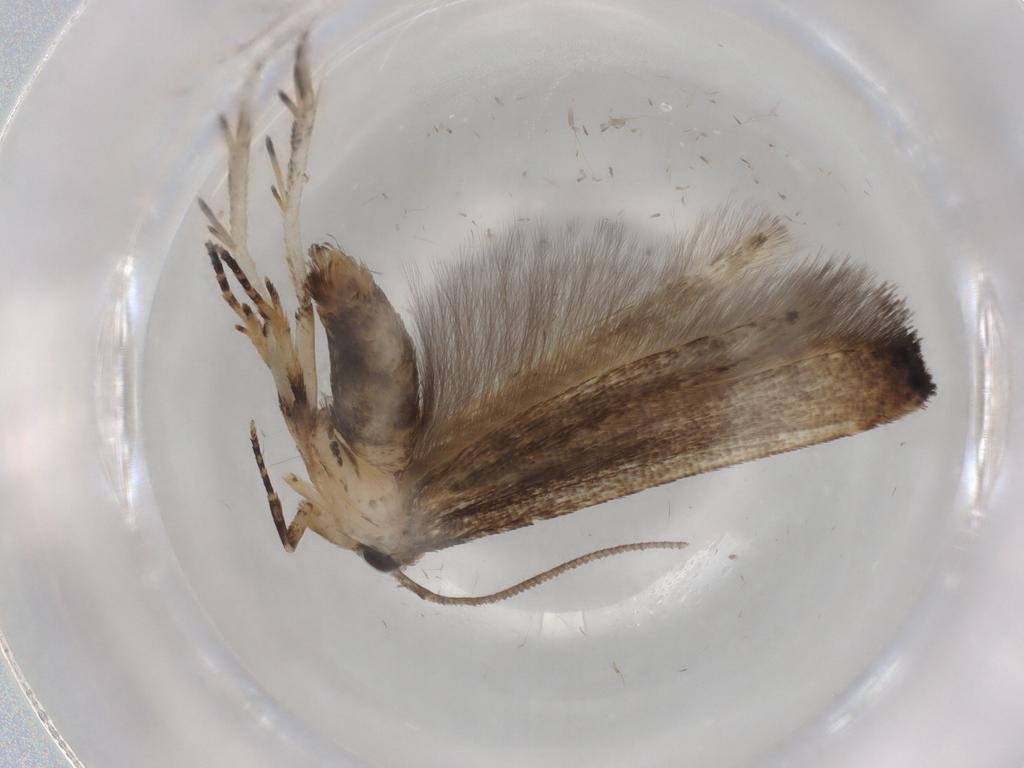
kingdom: Animalia
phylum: Arthropoda
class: Insecta
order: Lepidoptera
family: Cosmopterigidae
